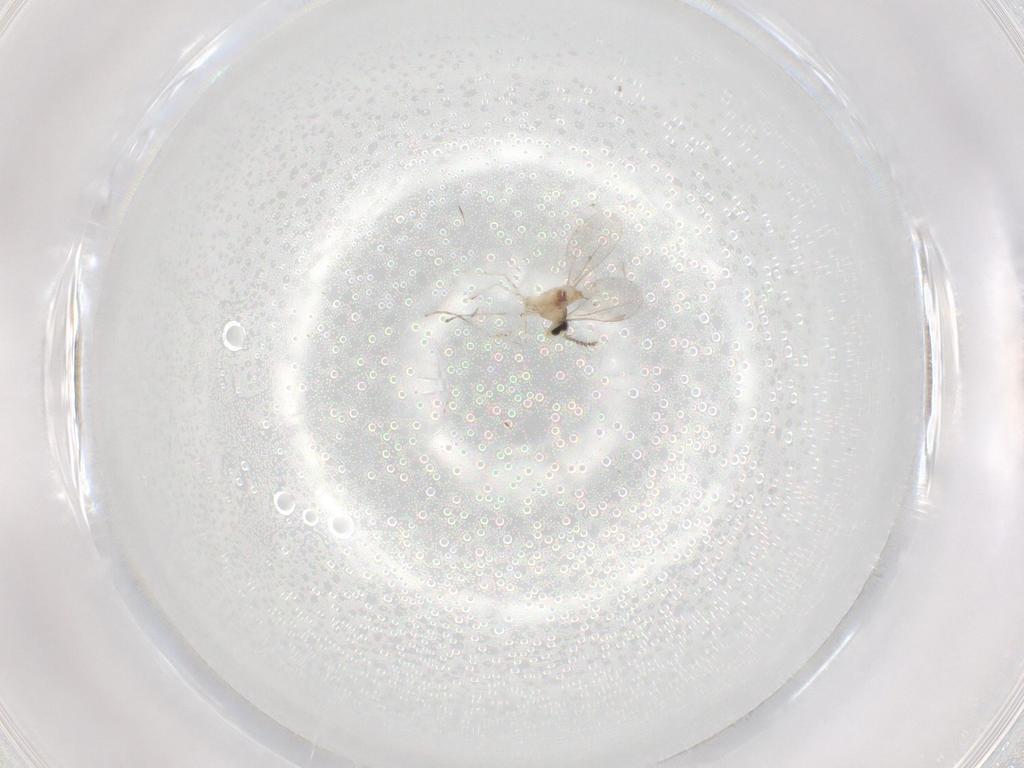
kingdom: Animalia
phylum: Arthropoda
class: Insecta
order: Diptera
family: Cecidomyiidae
